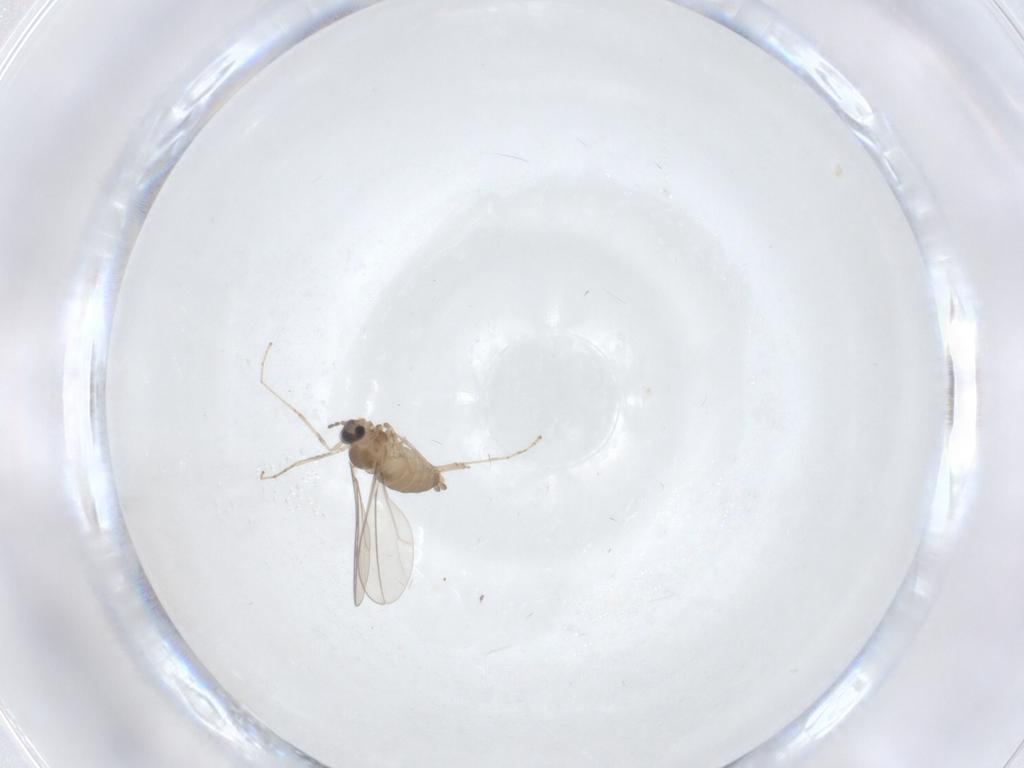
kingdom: Animalia
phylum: Arthropoda
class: Insecta
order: Diptera
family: Cecidomyiidae
